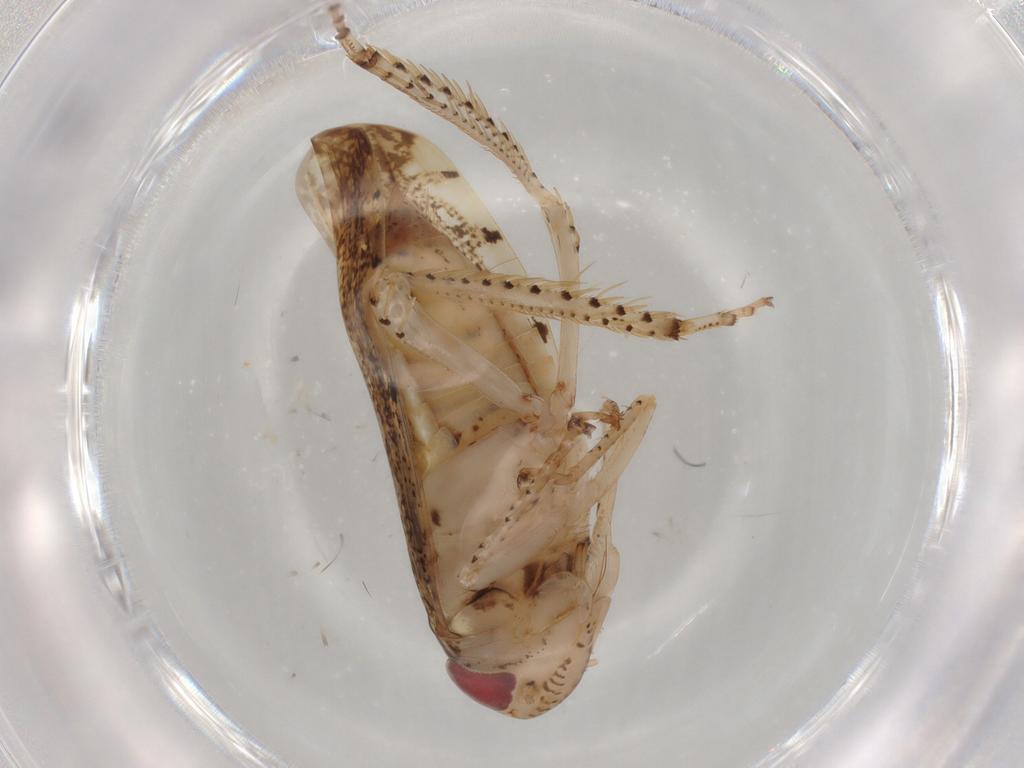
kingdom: Animalia
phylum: Arthropoda
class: Insecta
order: Hemiptera
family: Cicadellidae
